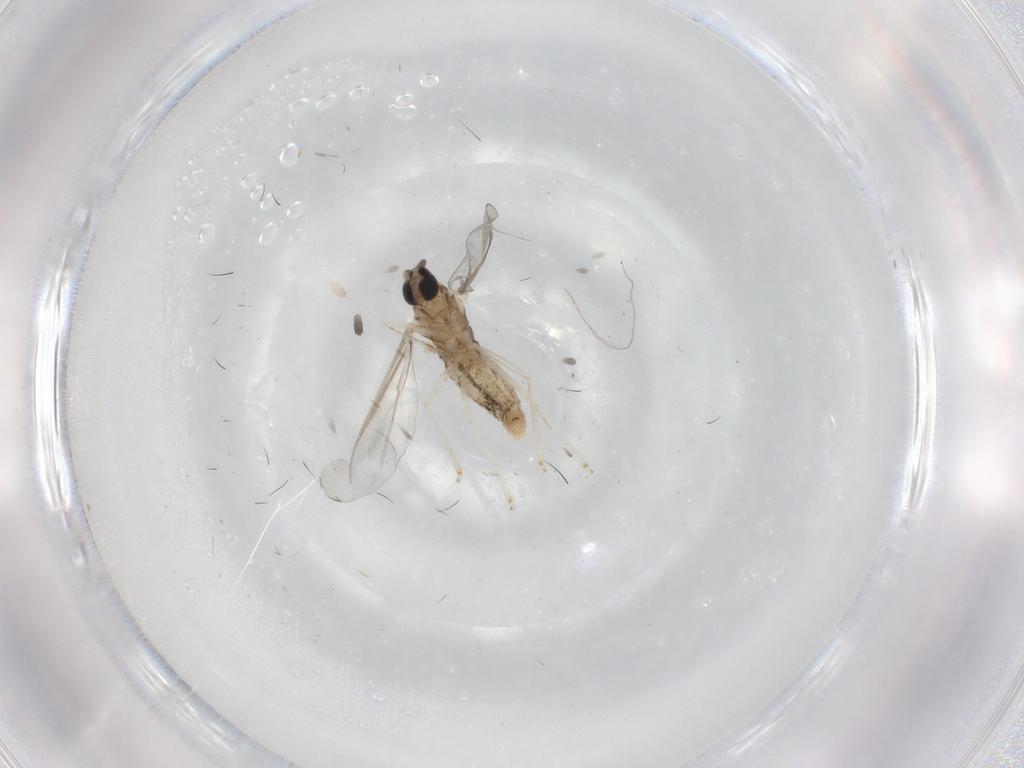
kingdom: Animalia
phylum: Arthropoda
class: Insecta
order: Diptera
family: Cecidomyiidae
